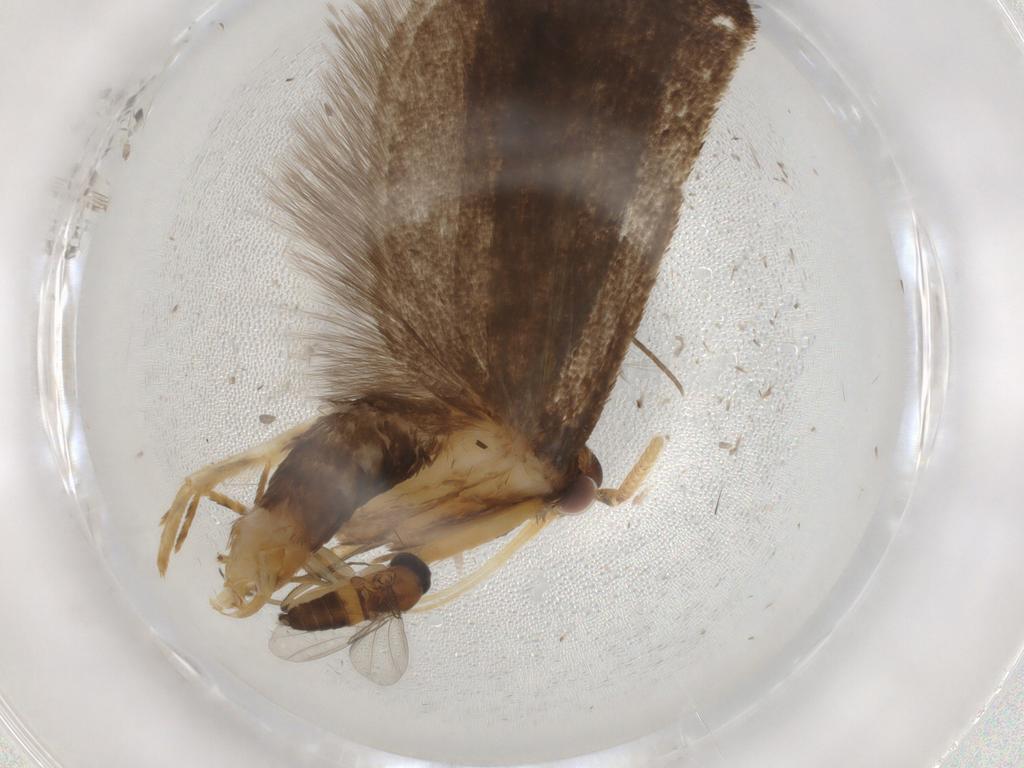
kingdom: Animalia
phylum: Arthropoda
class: Insecta
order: Lepidoptera
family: Lecithoceridae
